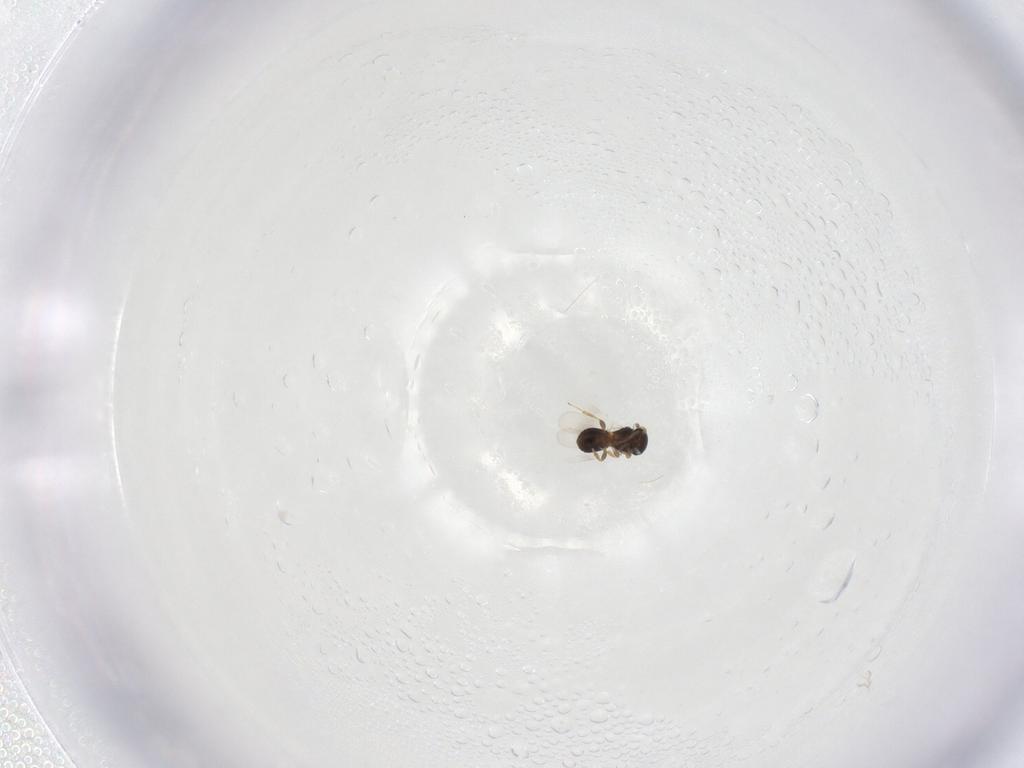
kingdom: Animalia
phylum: Arthropoda
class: Insecta
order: Hymenoptera
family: Platygastridae
